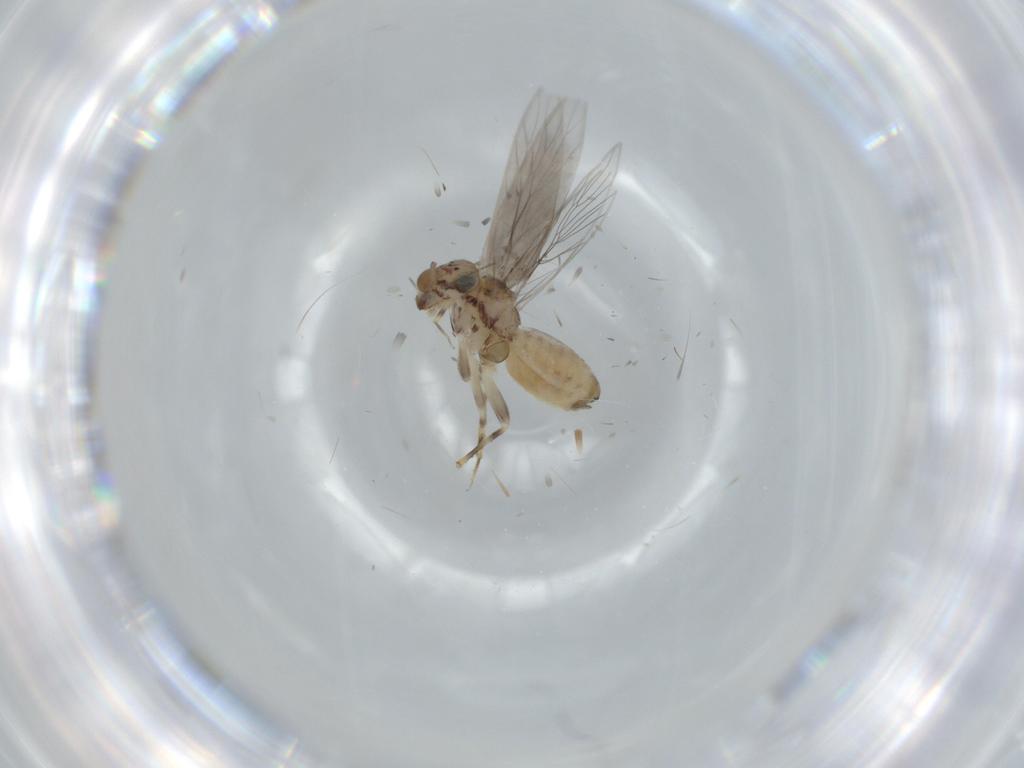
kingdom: Animalia
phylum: Arthropoda
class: Insecta
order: Psocodea
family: Lepidopsocidae
